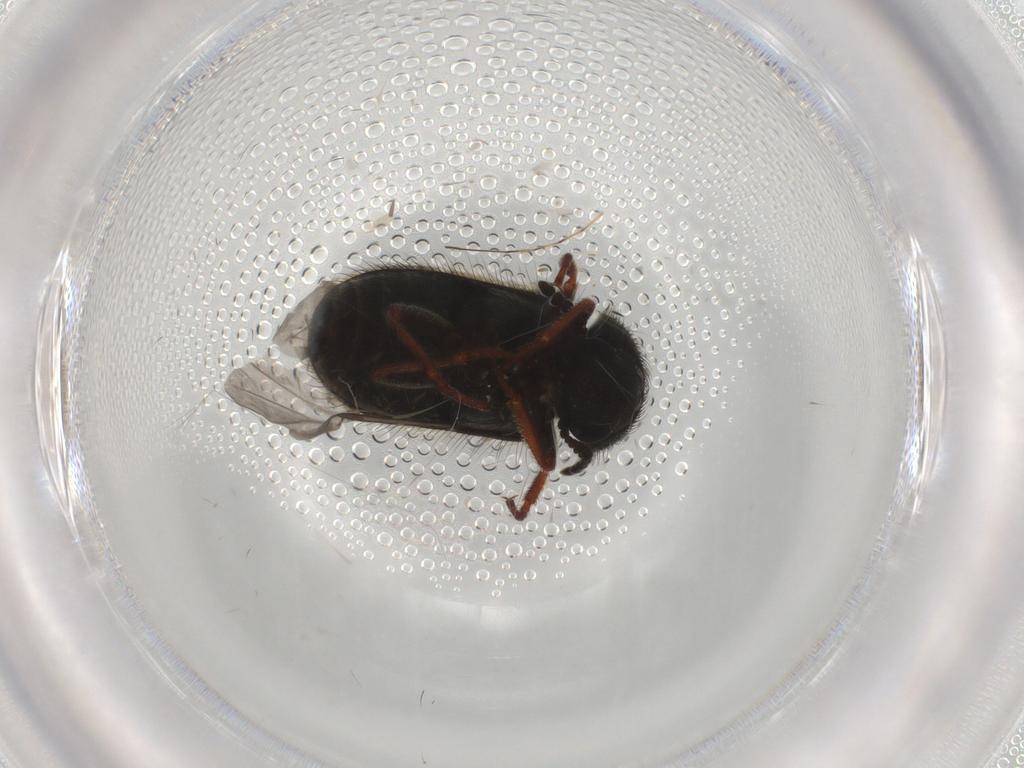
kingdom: Animalia
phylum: Arthropoda
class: Insecta
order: Coleoptera
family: Melyridae
